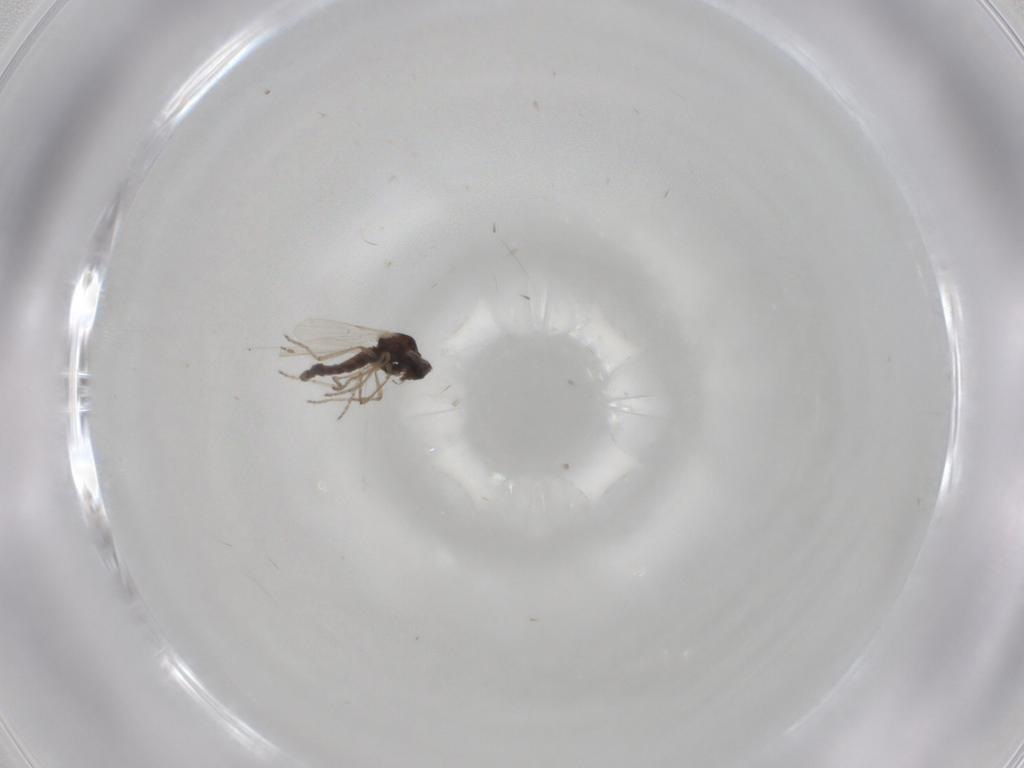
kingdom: Animalia
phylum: Arthropoda
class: Insecta
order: Diptera
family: Ceratopogonidae
